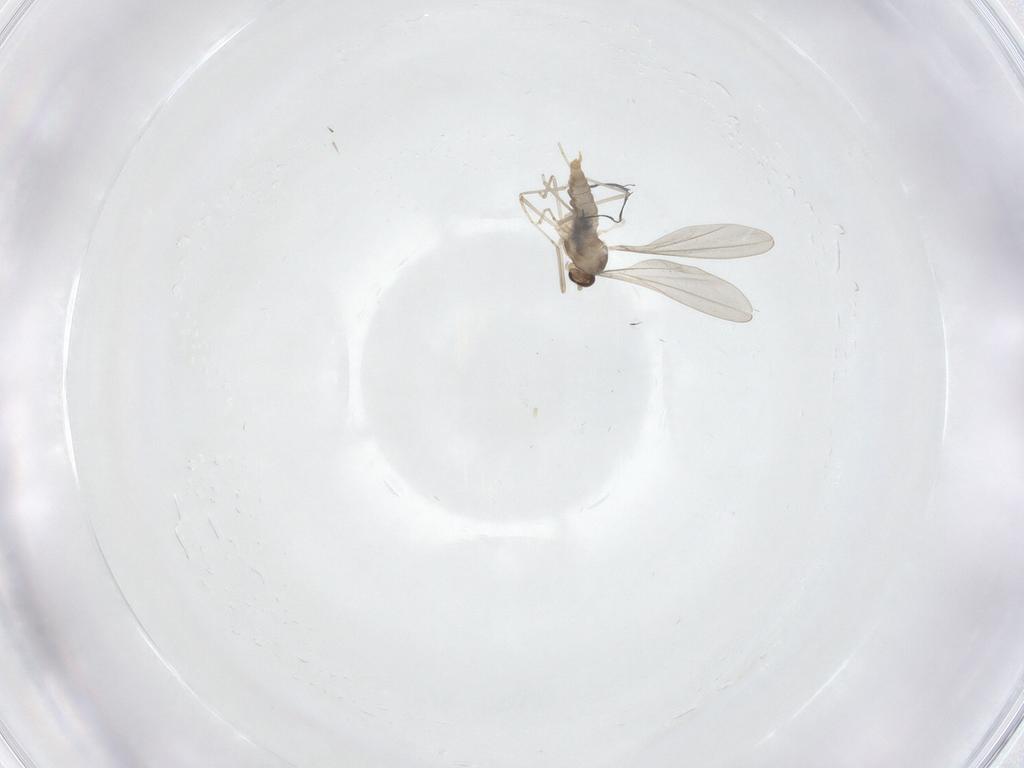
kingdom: Animalia
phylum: Arthropoda
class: Insecta
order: Diptera
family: Cecidomyiidae
